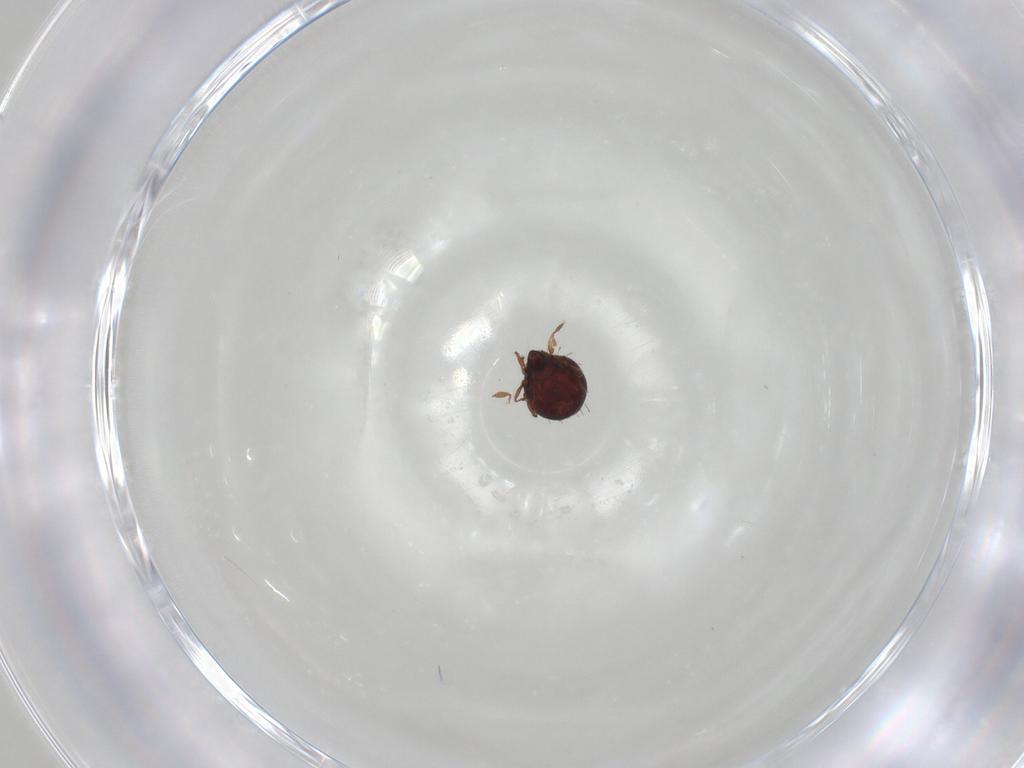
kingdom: Animalia
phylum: Arthropoda
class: Arachnida
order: Sarcoptiformes
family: Caloppiidae
